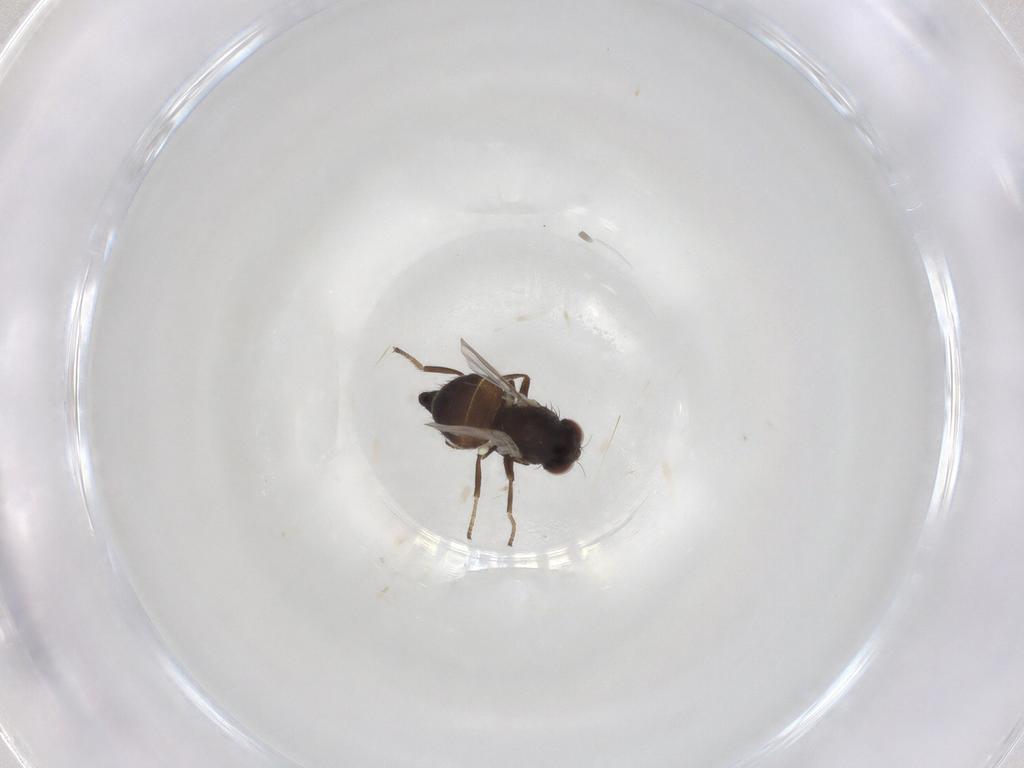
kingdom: Animalia
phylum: Arthropoda
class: Insecta
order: Diptera
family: Agromyzidae
